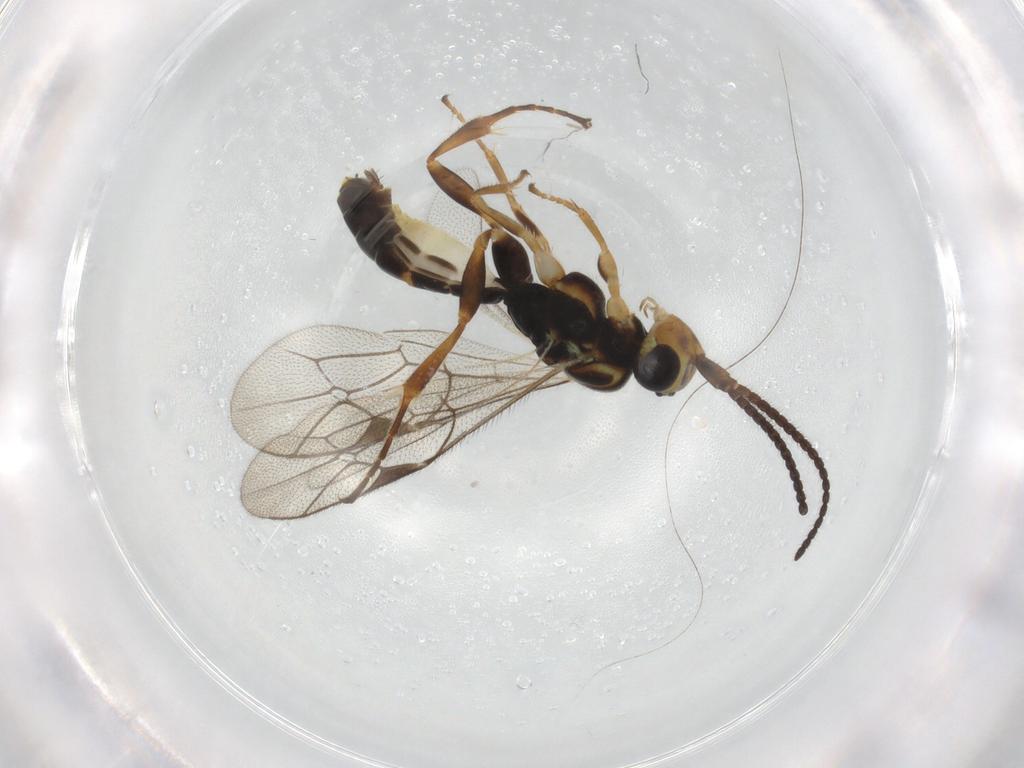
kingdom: Animalia
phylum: Arthropoda
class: Insecta
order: Hymenoptera
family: Ichneumonidae
